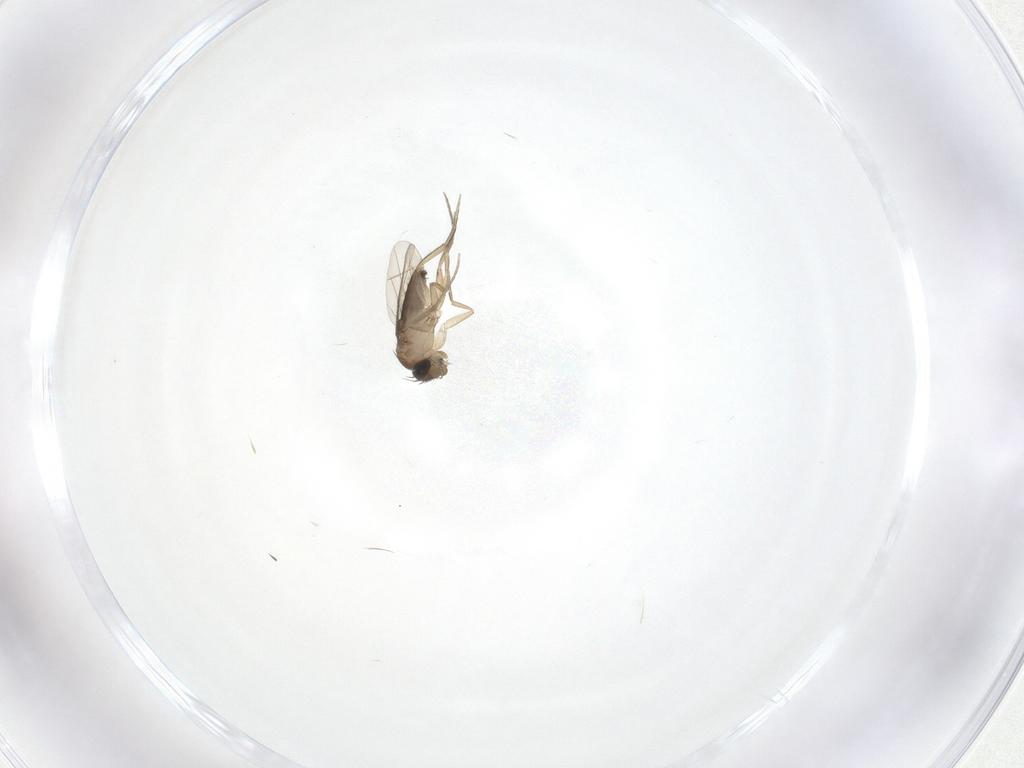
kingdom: Animalia
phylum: Arthropoda
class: Insecta
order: Diptera
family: Phoridae
